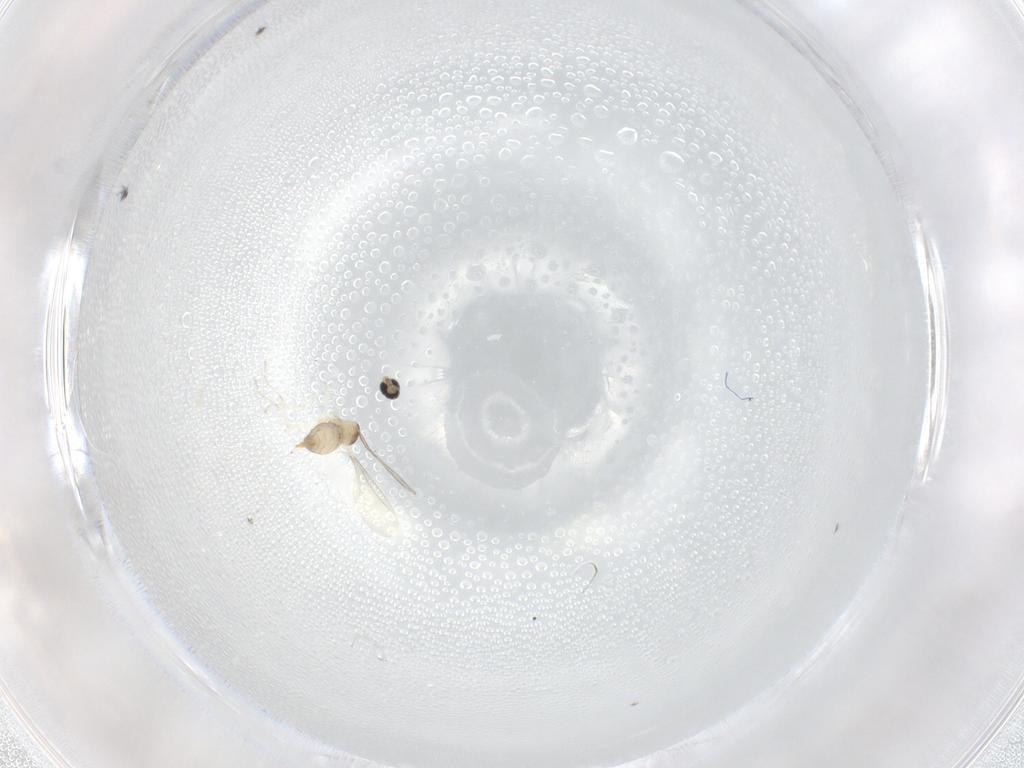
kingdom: Animalia
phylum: Arthropoda
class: Insecta
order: Diptera
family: Cecidomyiidae
